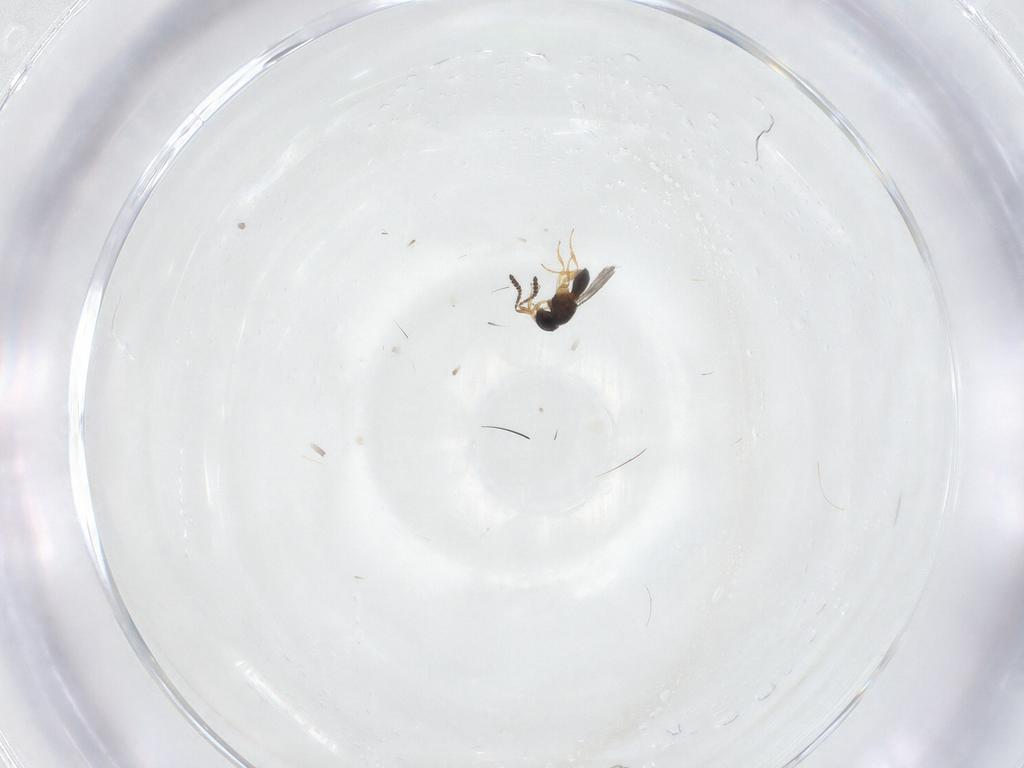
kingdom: Animalia
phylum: Arthropoda
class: Insecta
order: Hymenoptera
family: Scelionidae
